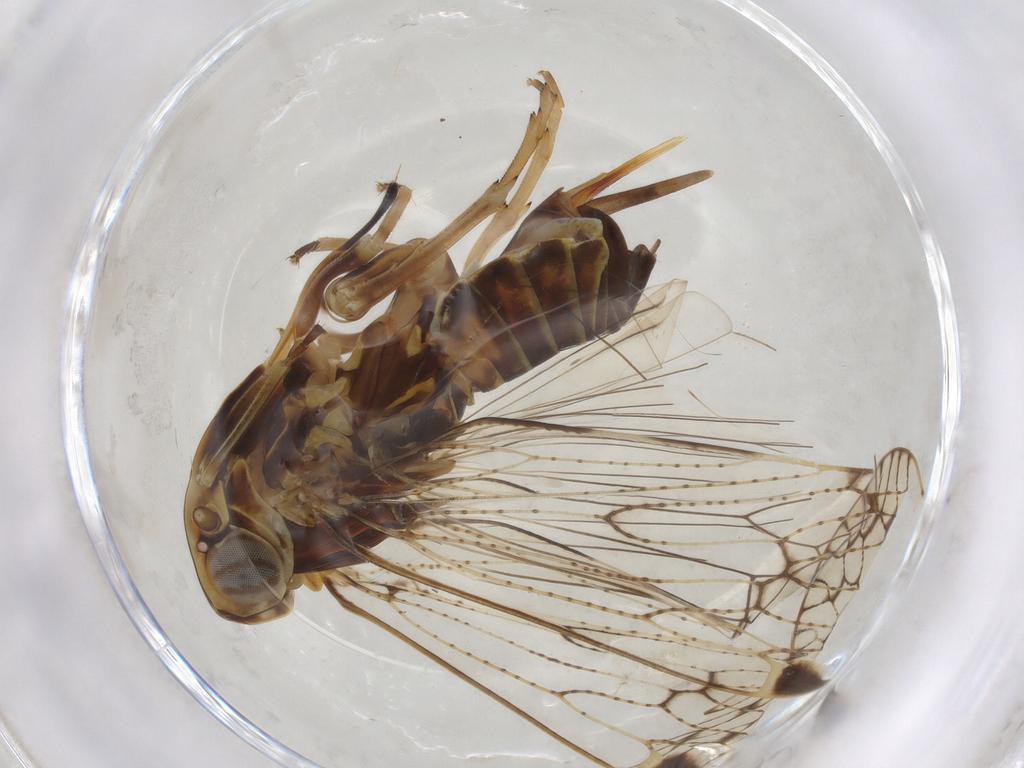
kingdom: Animalia
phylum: Arthropoda
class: Insecta
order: Hemiptera
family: Cixiidae
